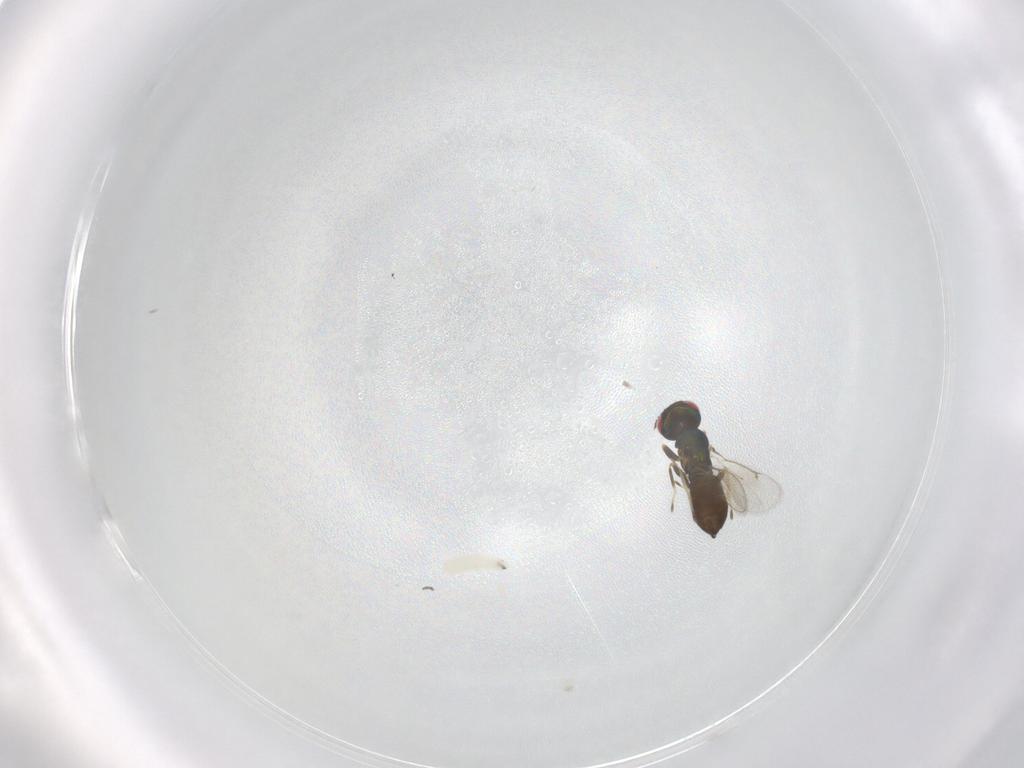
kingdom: Animalia
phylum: Arthropoda
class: Insecta
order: Hymenoptera
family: Eulophidae
